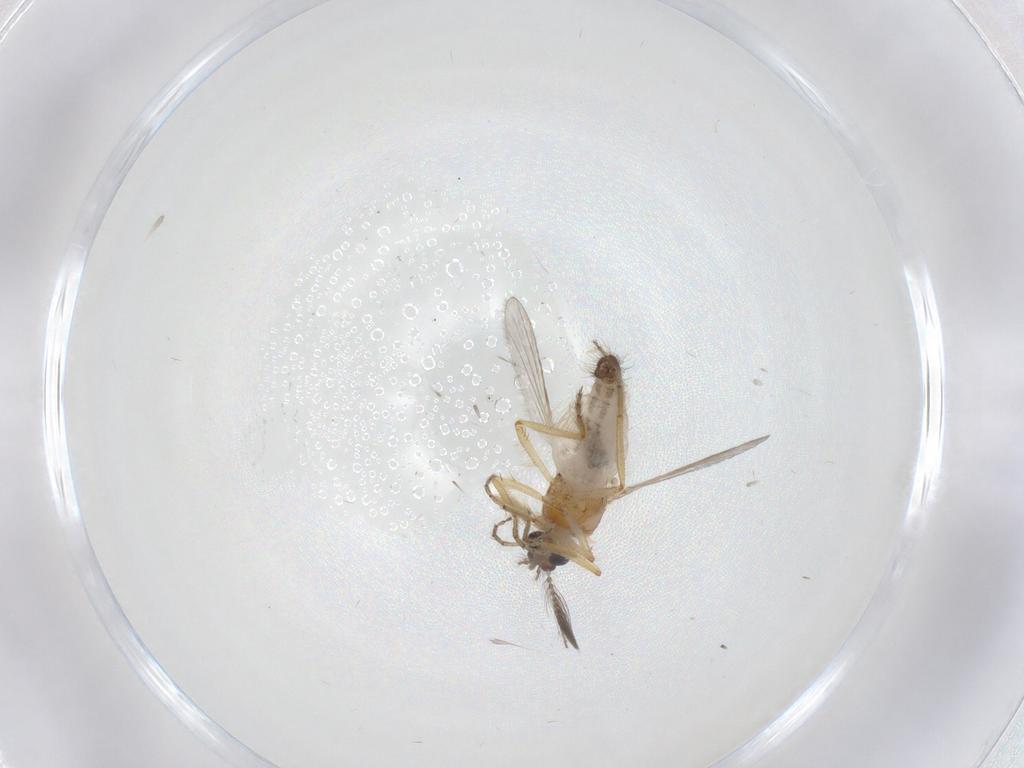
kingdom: Animalia
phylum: Arthropoda
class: Insecta
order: Diptera
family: Ceratopogonidae
